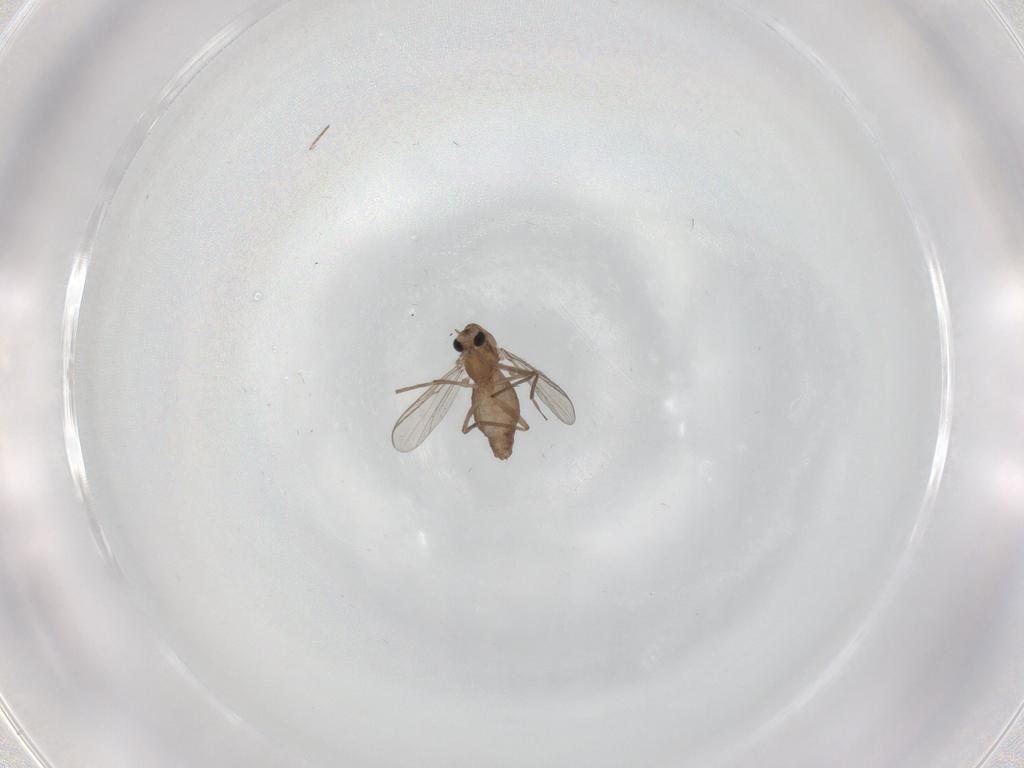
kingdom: Animalia
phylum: Arthropoda
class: Insecta
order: Diptera
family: Chironomidae
